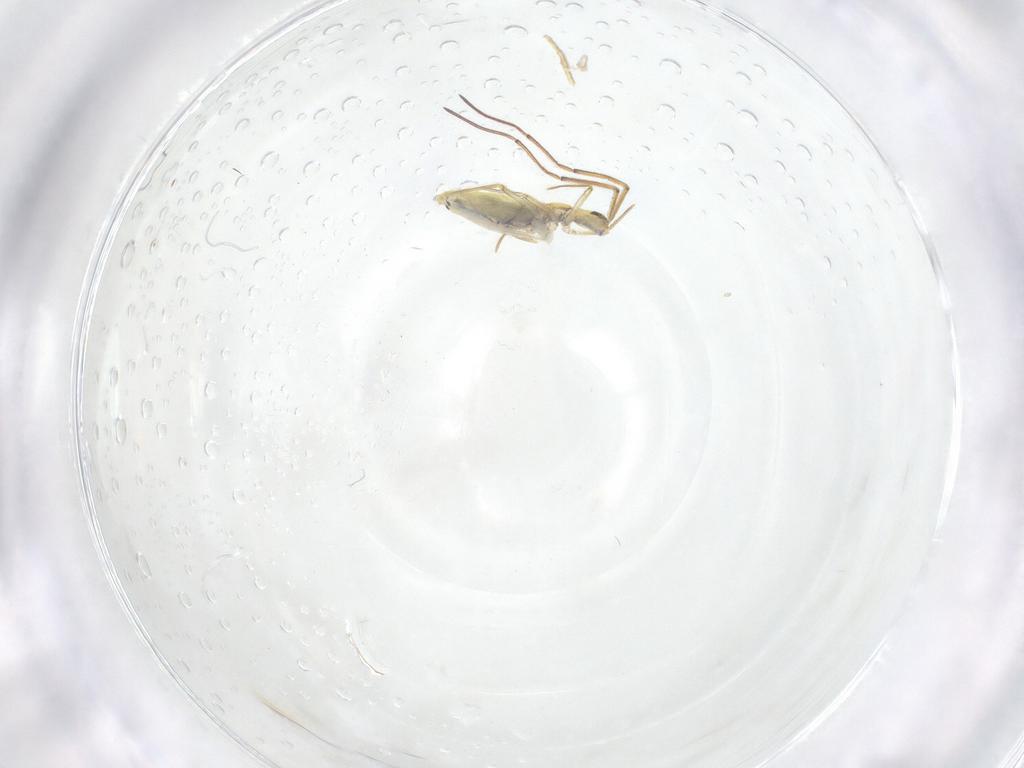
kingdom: Animalia
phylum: Arthropoda
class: Collembola
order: Entomobryomorpha
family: Entomobryidae
